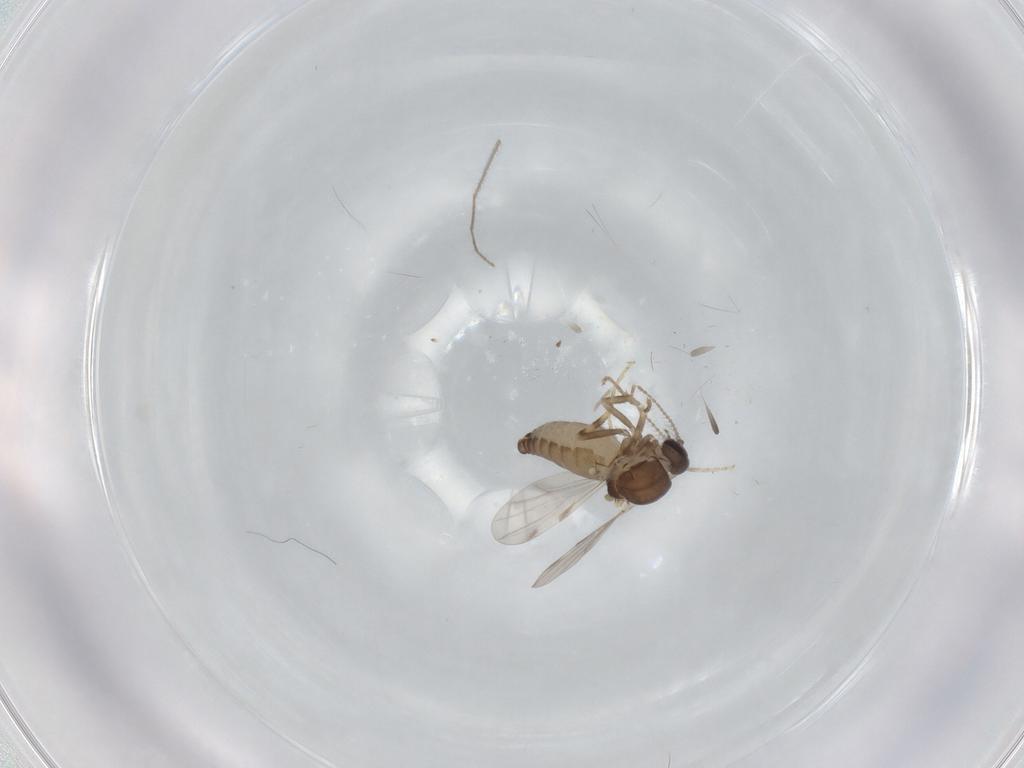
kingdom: Animalia
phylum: Arthropoda
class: Insecta
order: Diptera
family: Ceratopogonidae
